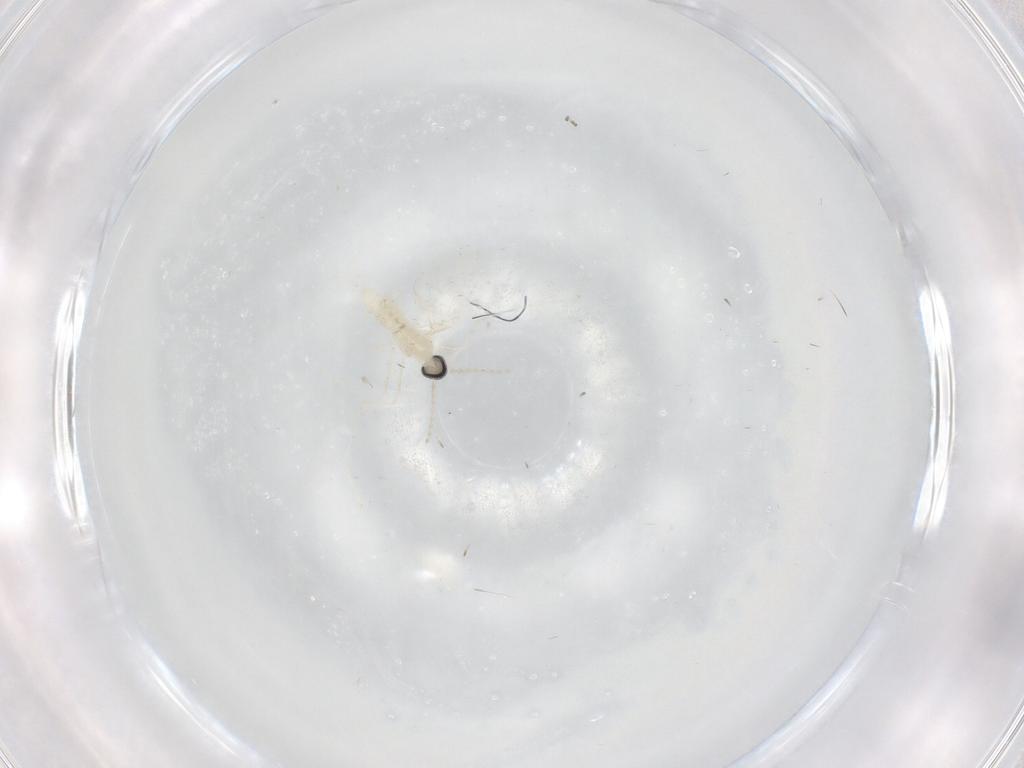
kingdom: Animalia
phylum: Arthropoda
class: Insecta
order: Diptera
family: Cecidomyiidae
